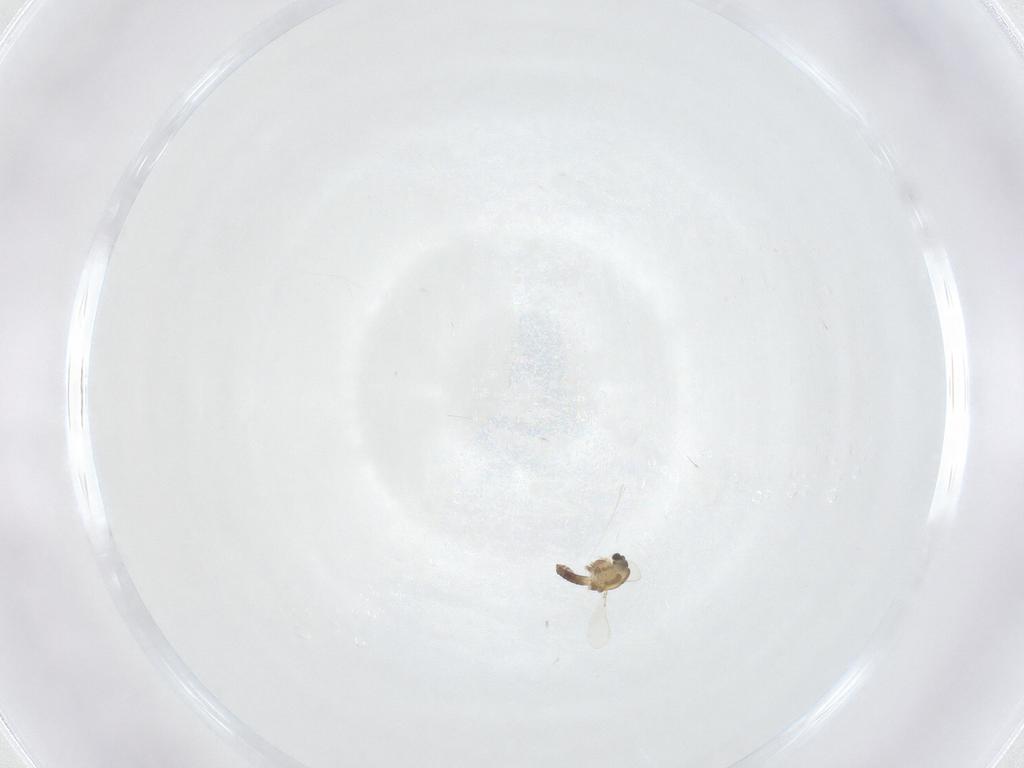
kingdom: Animalia
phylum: Arthropoda
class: Insecta
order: Diptera
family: Chironomidae
